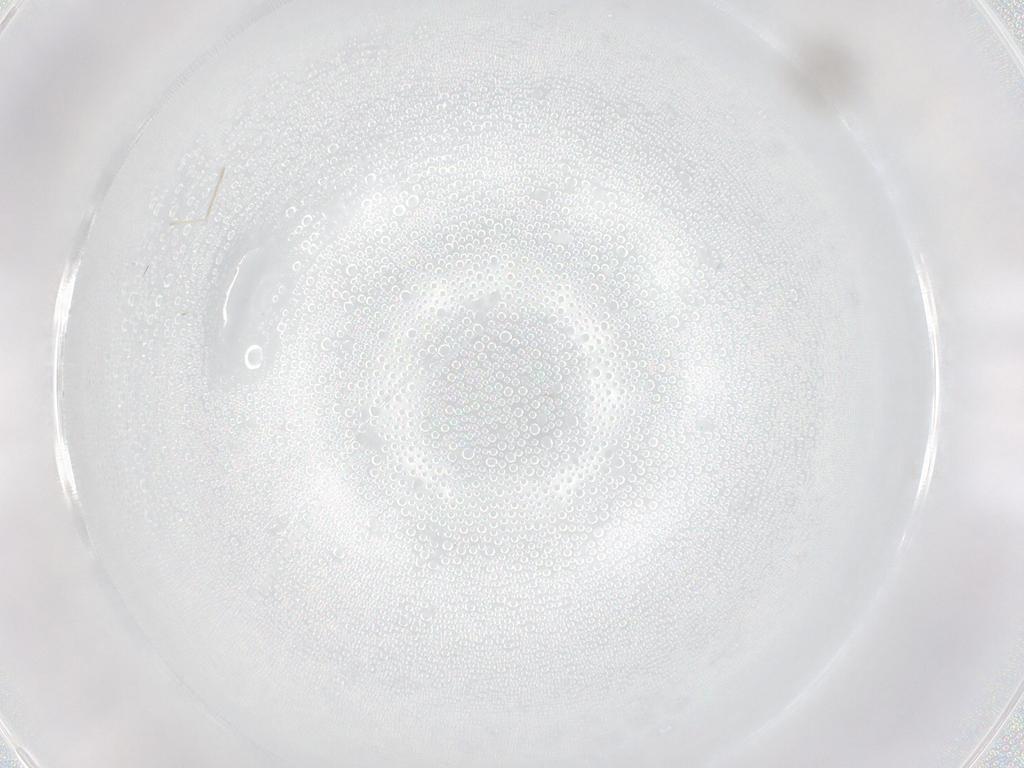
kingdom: Animalia
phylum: Arthropoda
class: Insecta
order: Diptera
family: Cecidomyiidae
